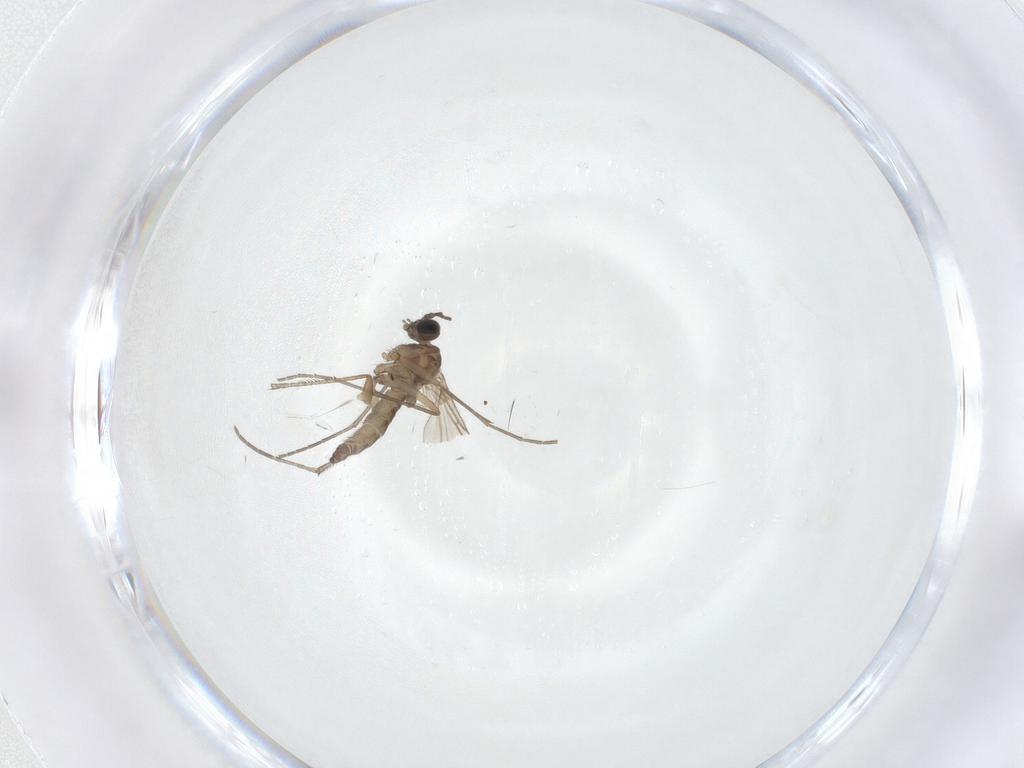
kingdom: Animalia
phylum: Arthropoda
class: Insecta
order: Diptera
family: Sciaridae
